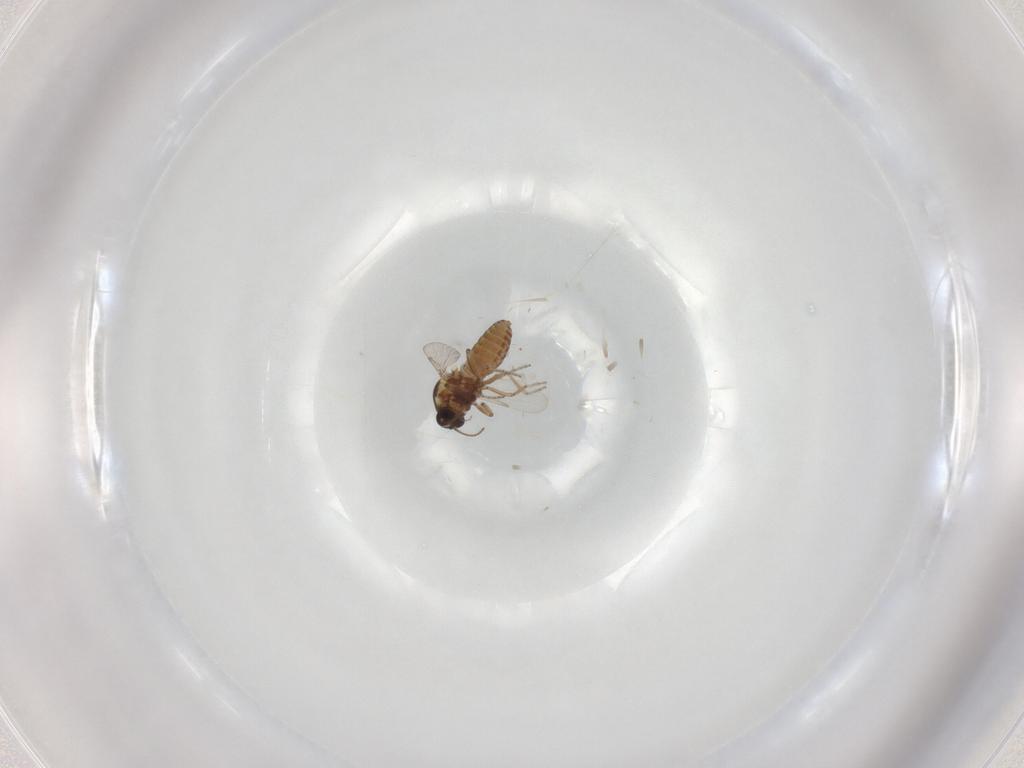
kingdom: Animalia
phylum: Arthropoda
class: Insecta
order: Diptera
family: Ceratopogonidae
